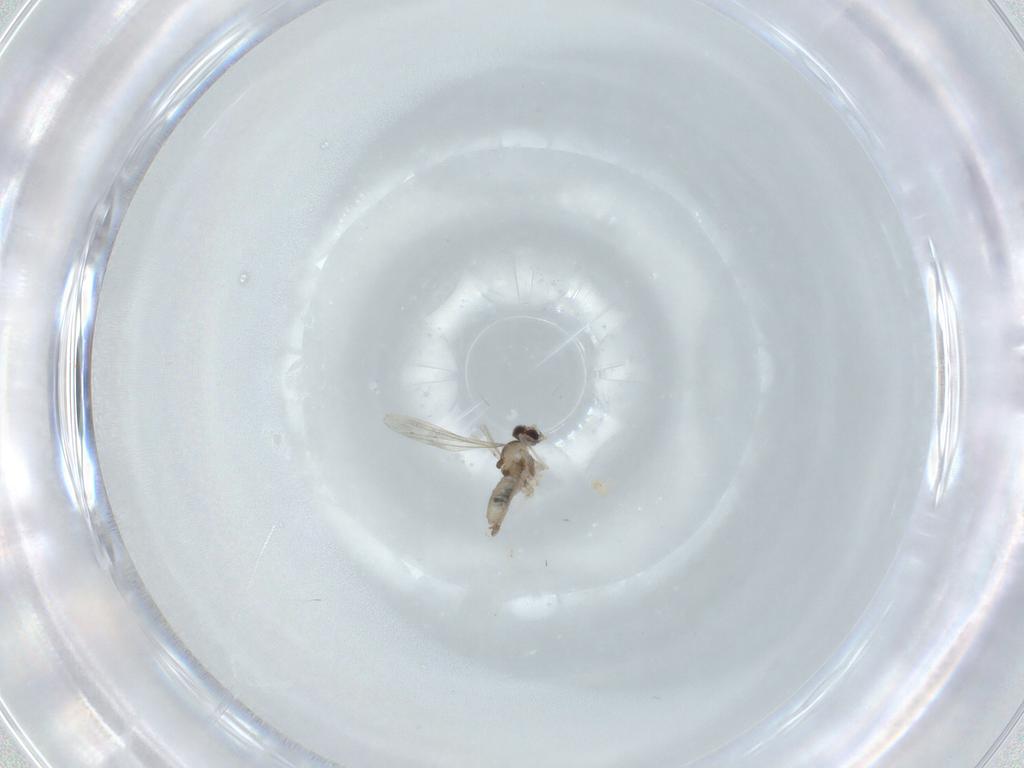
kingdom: Animalia
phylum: Arthropoda
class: Insecta
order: Diptera
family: Cecidomyiidae
